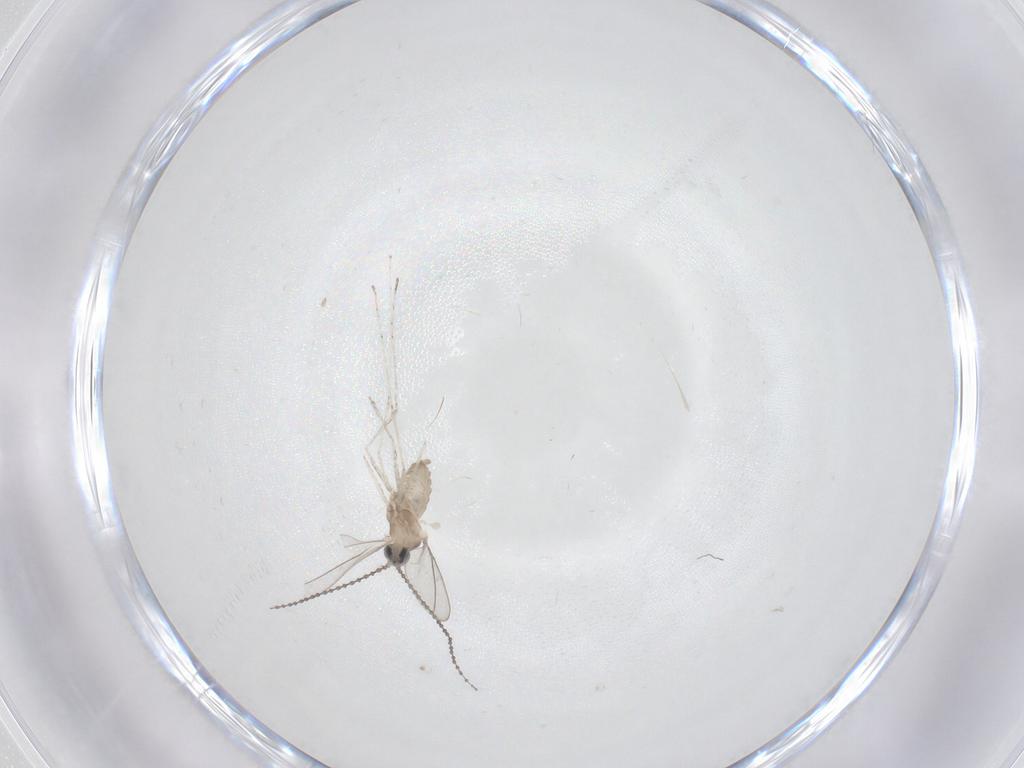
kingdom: Animalia
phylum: Arthropoda
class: Insecta
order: Diptera
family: Cecidomyiidae
